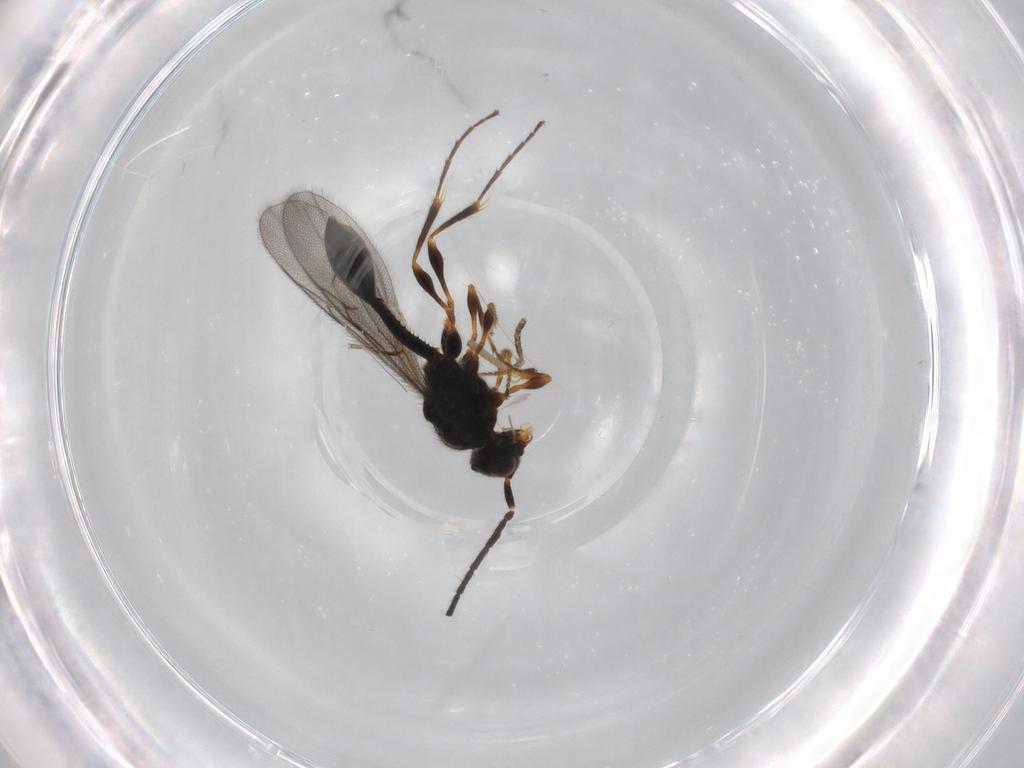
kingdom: Animalia
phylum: Arthropoda
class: Insecta
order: Hymenoptera
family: Diapriidae
